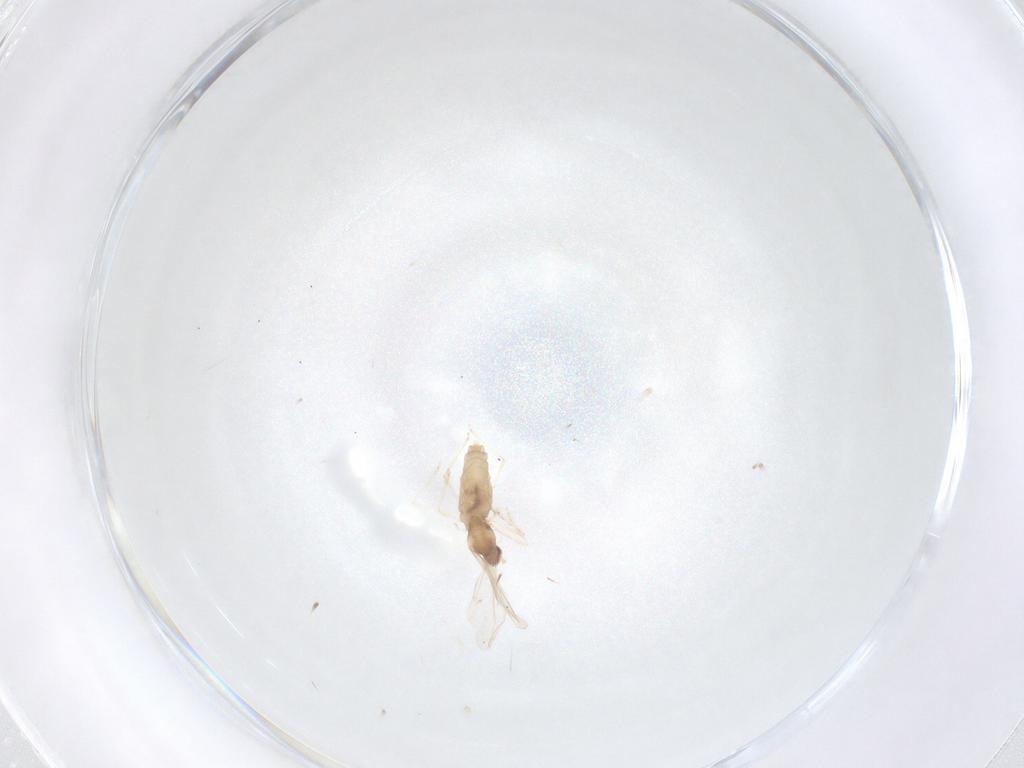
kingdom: Animalia
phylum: Arthropoda
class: Insecta
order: Diptera
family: Cecidomyiidae
